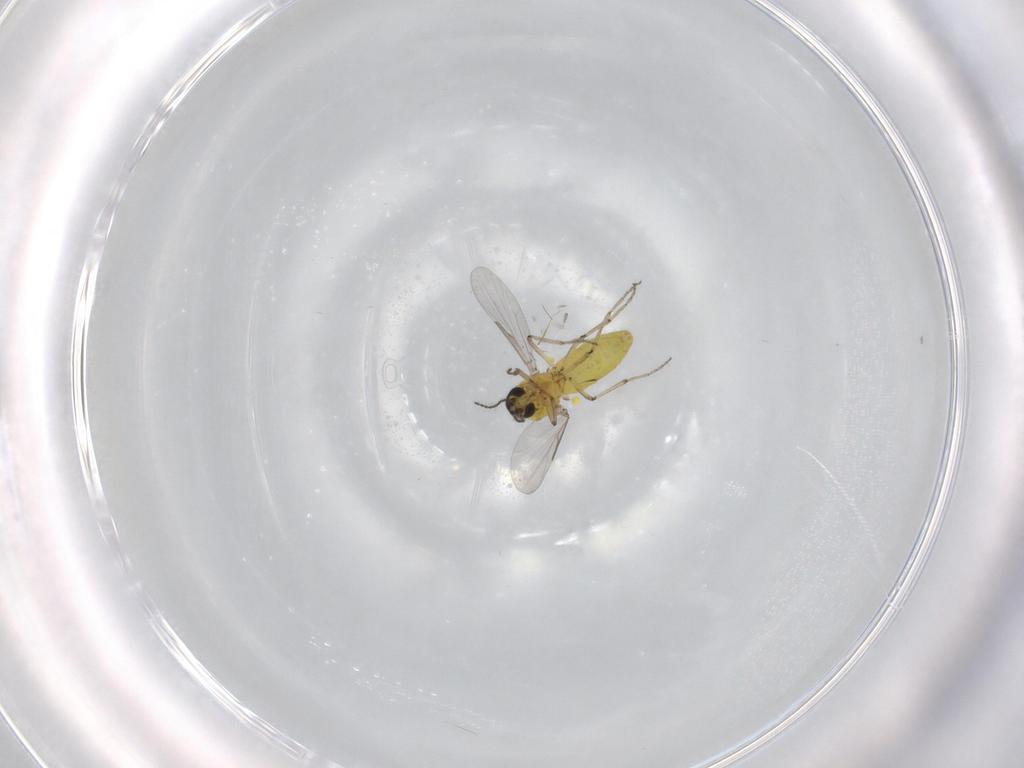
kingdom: Animalia
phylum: Arthropoda
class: Insecta
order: Diptera
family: Ceratopogonidae
